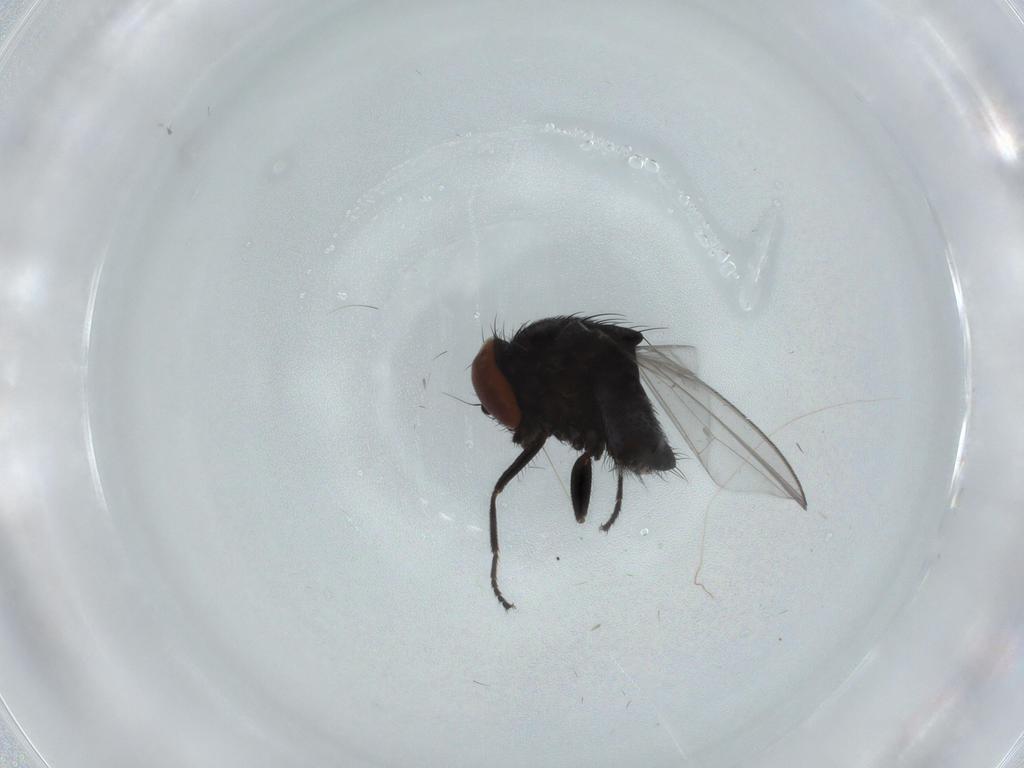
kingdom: Animalia
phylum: Arthropoda
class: Insecta
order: Diptera
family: Milichiidae
